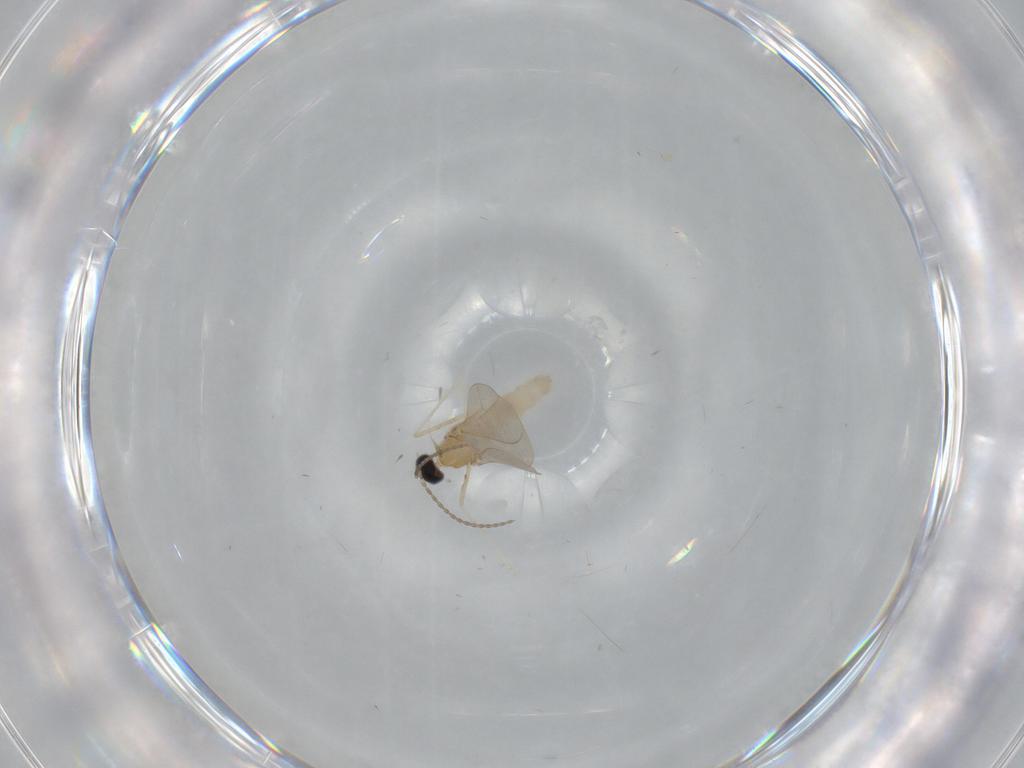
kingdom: Animalia
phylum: Arthropoda
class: Insecta
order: Diptera
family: Cecidomyiidae
